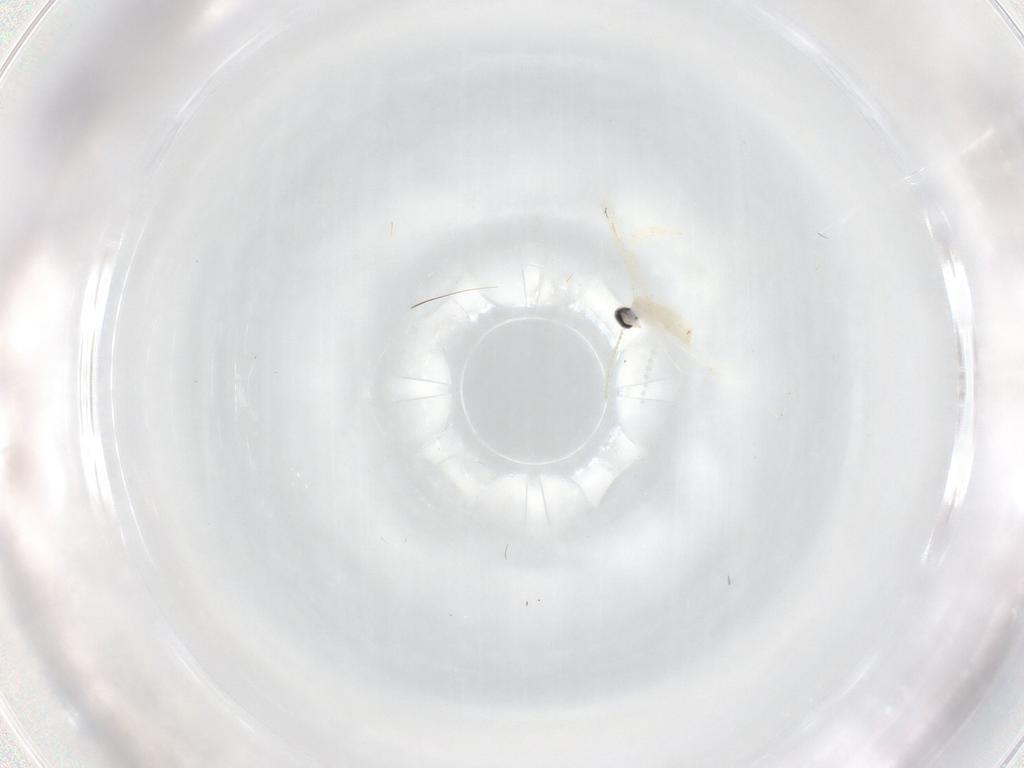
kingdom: Animalia
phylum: Arthropoda
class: Insecta
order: Diptera
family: Cecidomyiidae
